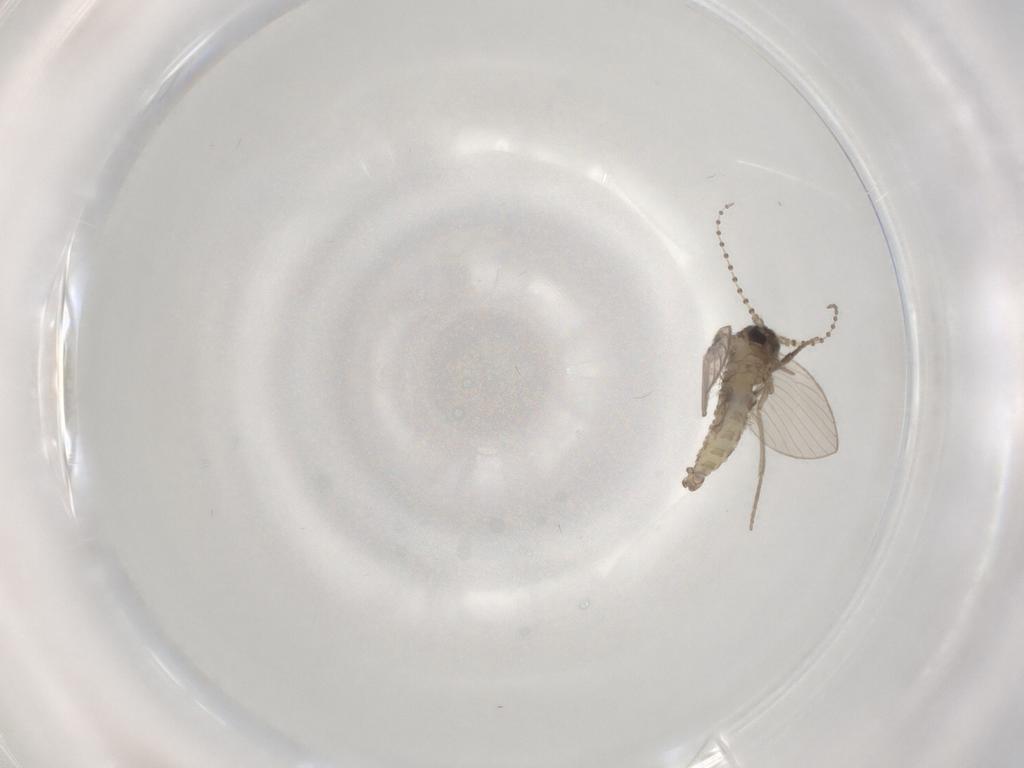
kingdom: Animalia
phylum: Arthropoda
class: Insecta
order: Diptera
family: Psychodidae
